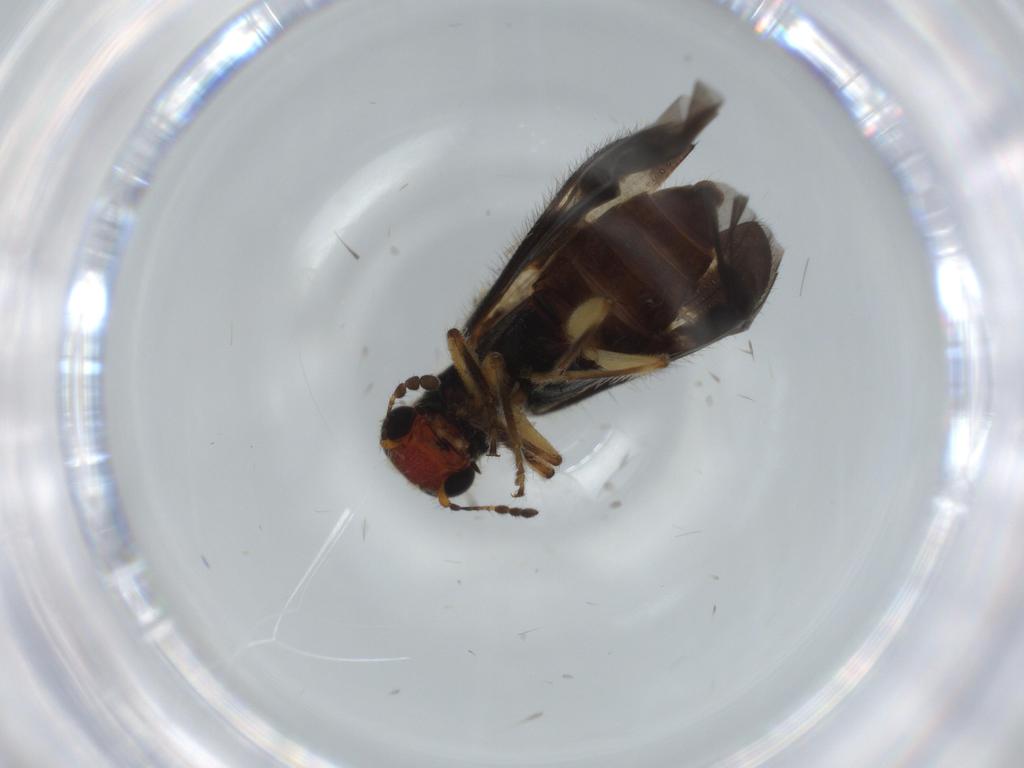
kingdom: Animalia
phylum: Arthropoda
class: Insecta
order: Coleoptera
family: Cleridae
